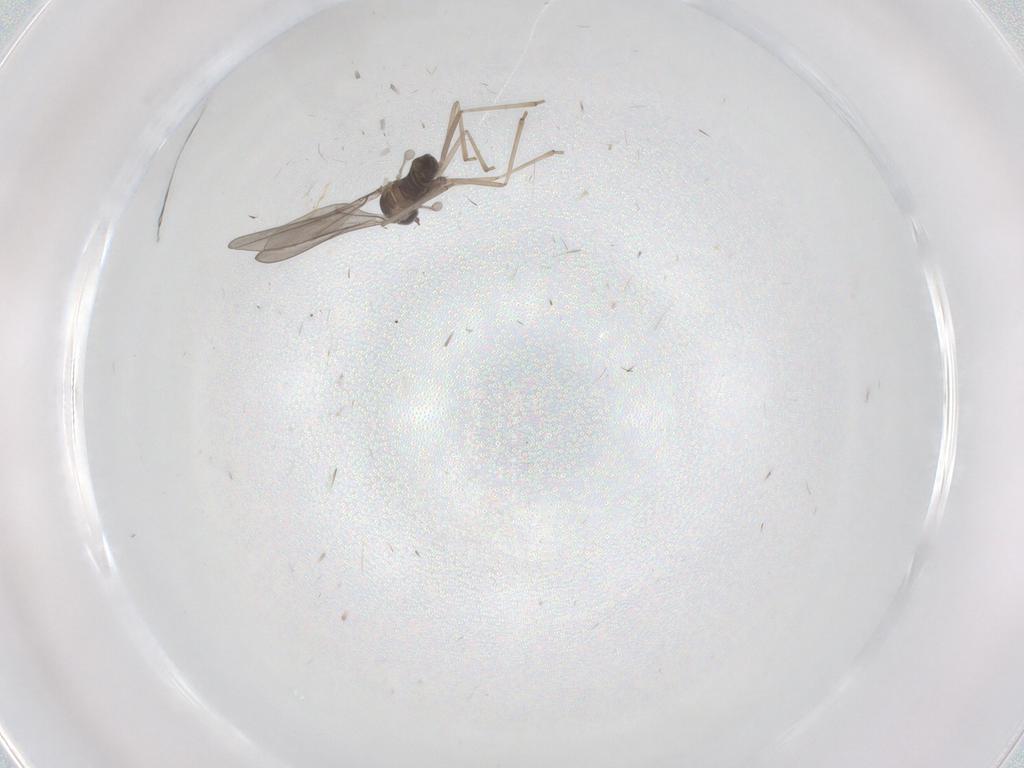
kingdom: Animalia
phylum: Arthropoda
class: Insecta
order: Diptera
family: Cecidomyiidae
